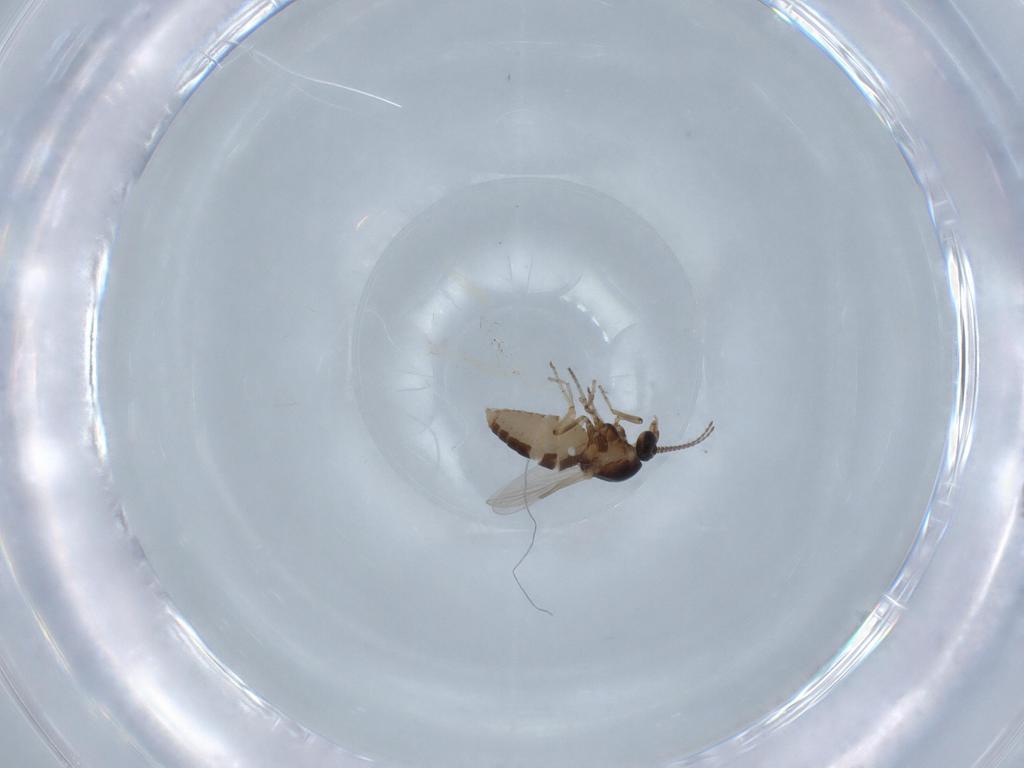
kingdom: Animalia
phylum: Arthropoda
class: Insecta
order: Diptera
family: Ceratopogonidae
